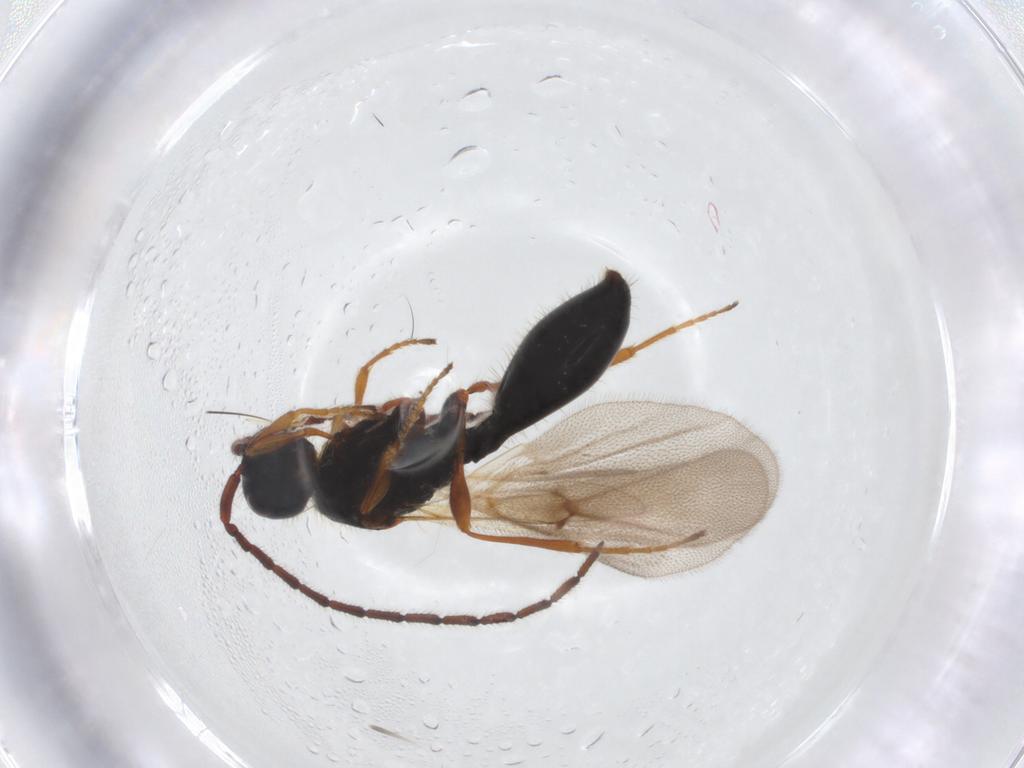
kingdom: Animalia
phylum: Arthropoda
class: Insecta
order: Hymenoptera
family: Diapriidae
